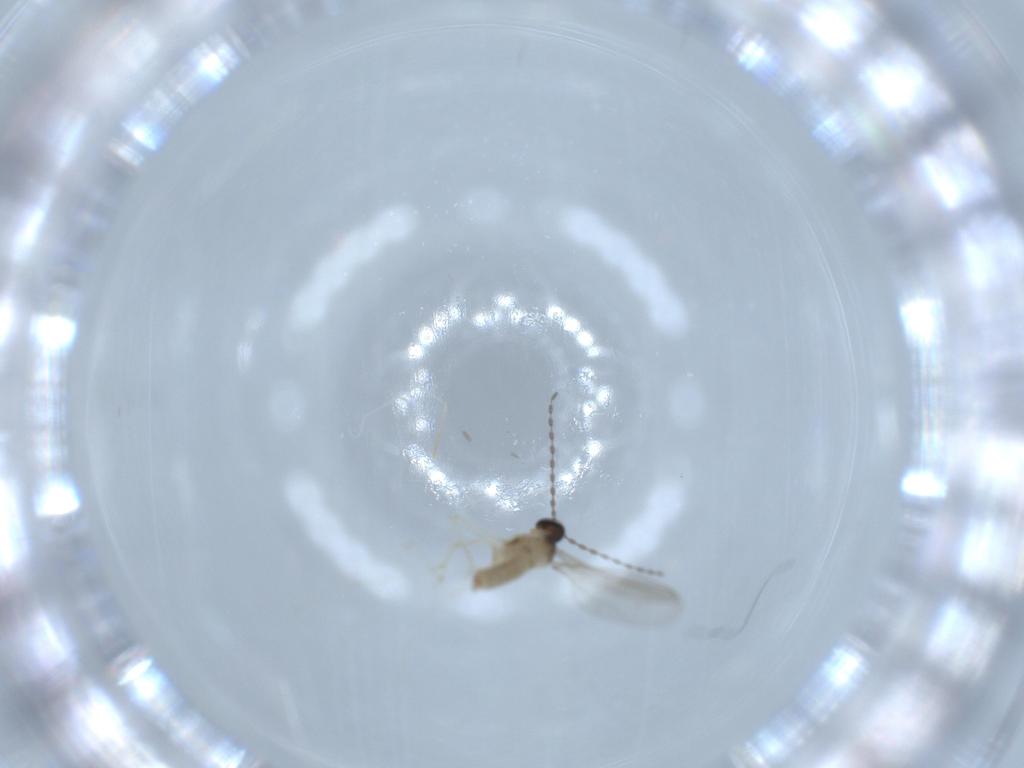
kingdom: Animalia
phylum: Arthropoda
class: Insecta
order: Diptera
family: Cecidomyiidae
